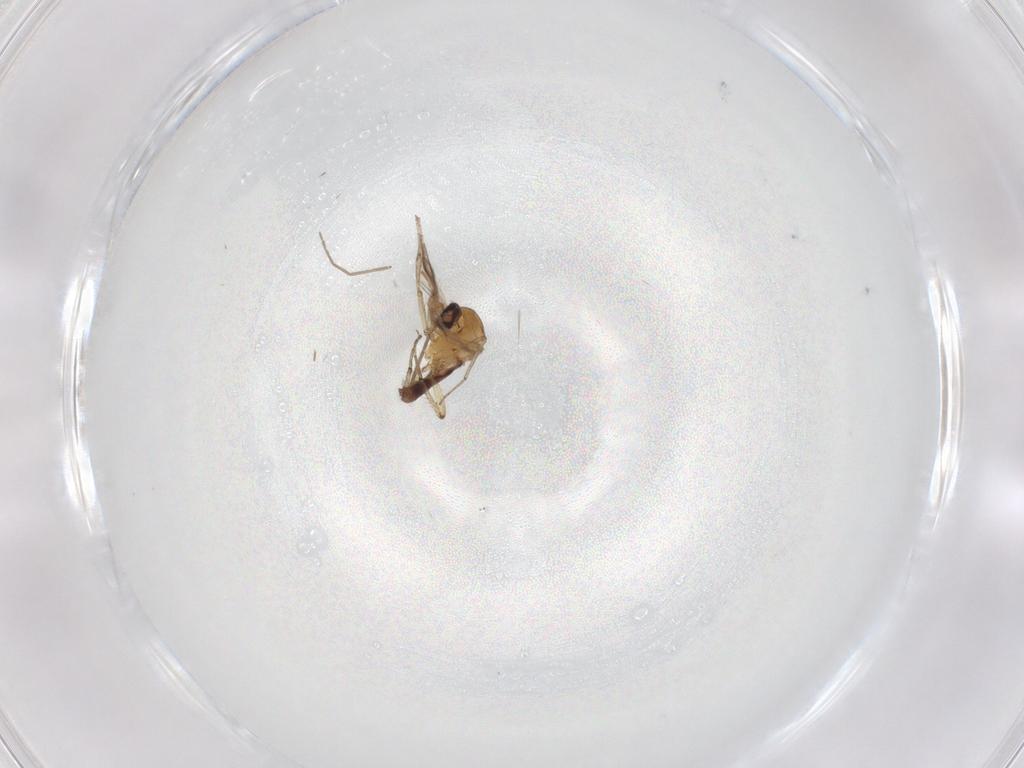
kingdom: Animalia
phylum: Arthropoda
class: Insecta
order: Diptera
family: Ceratopogonidae
